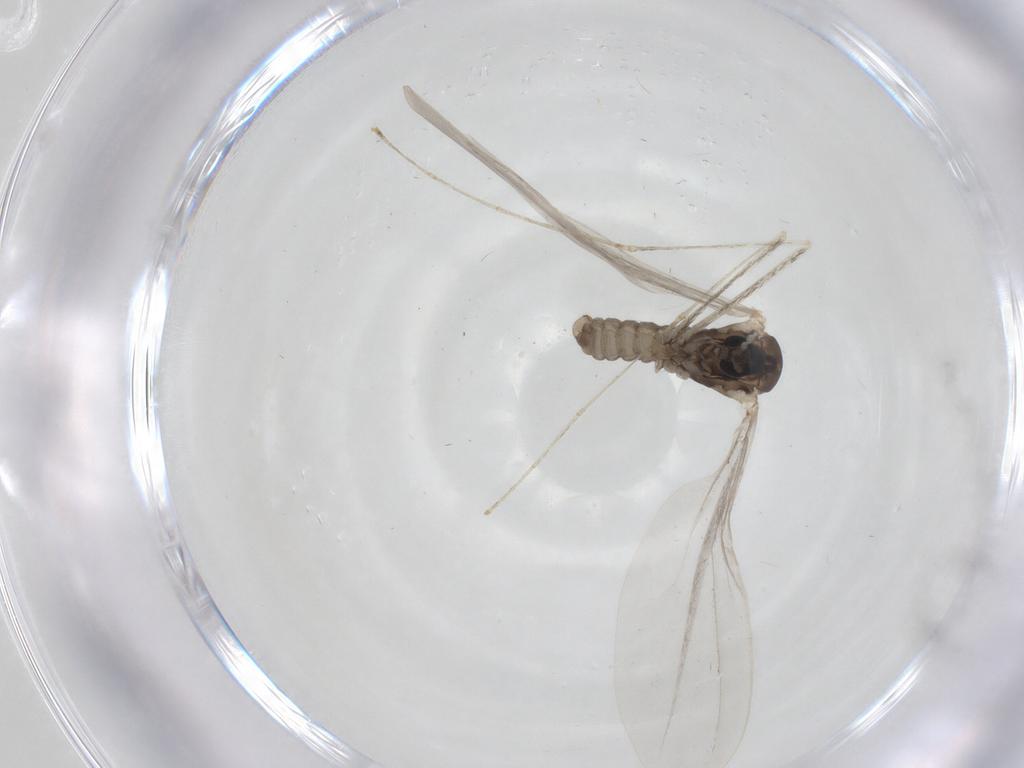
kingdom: Animalia
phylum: Arthropoda
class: Insecta
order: Diptera
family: Cecidomyiidae
